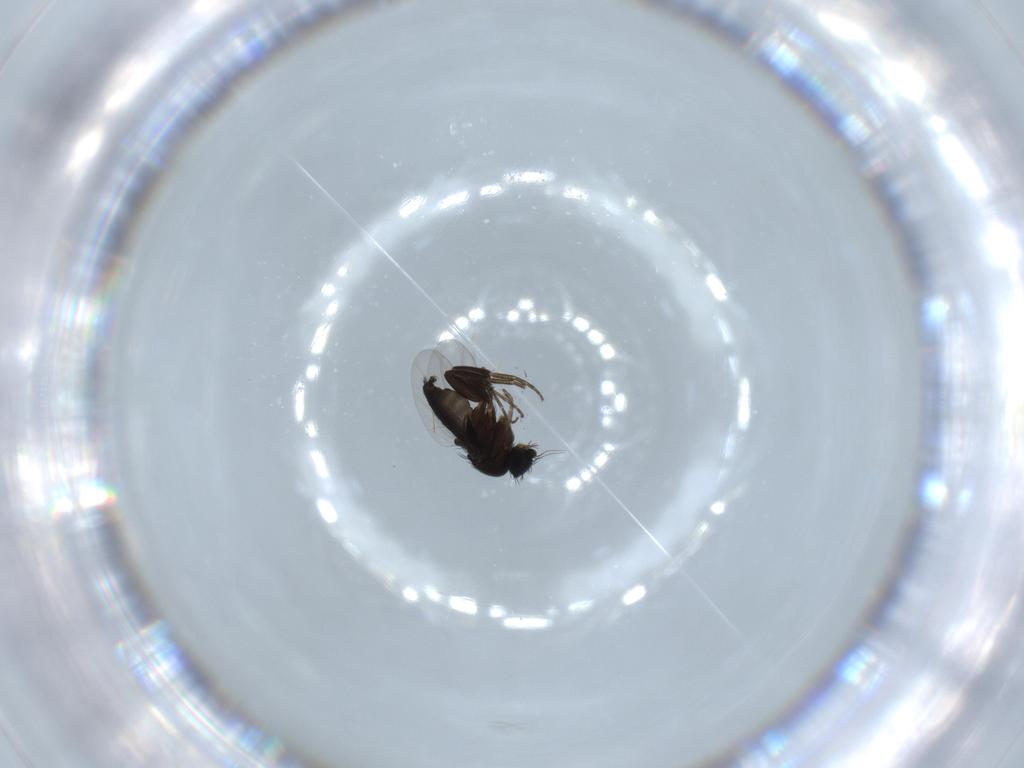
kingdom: Animalia
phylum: Arthropoda
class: Insecta
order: Diptera
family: Phoridae
